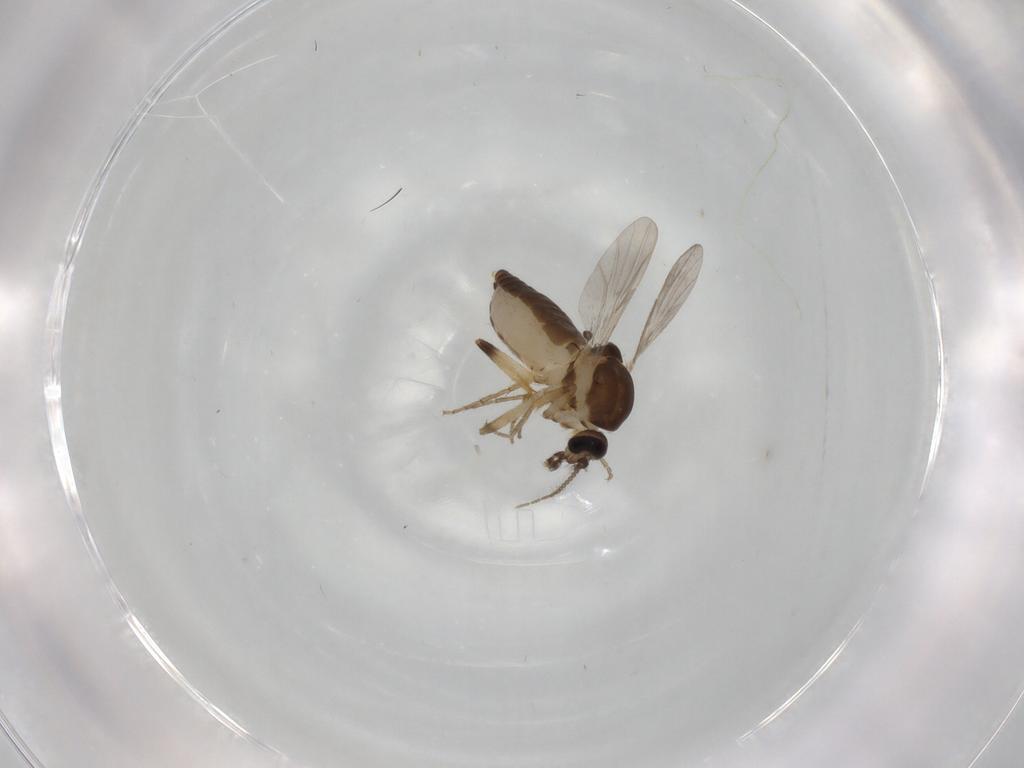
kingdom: Animalia
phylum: Arthropoda
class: Insecta
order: Diptera
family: Ceratopogonidae
